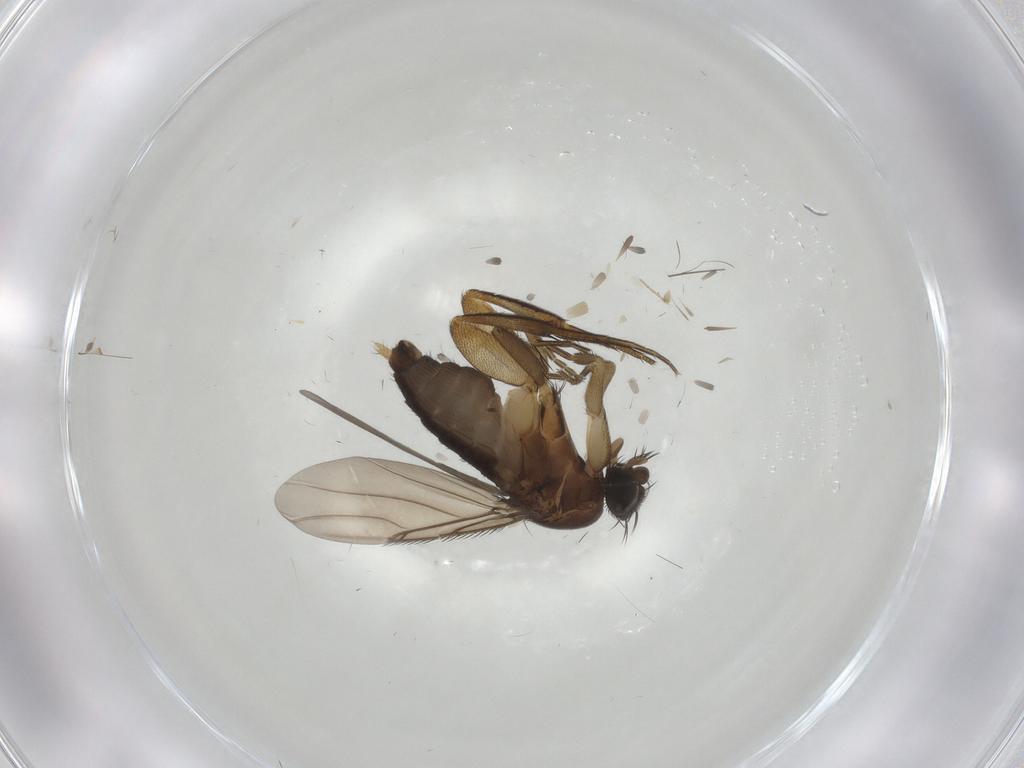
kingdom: Animalia
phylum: Arthropoda
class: Insecta
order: Diptera
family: Phoridae
